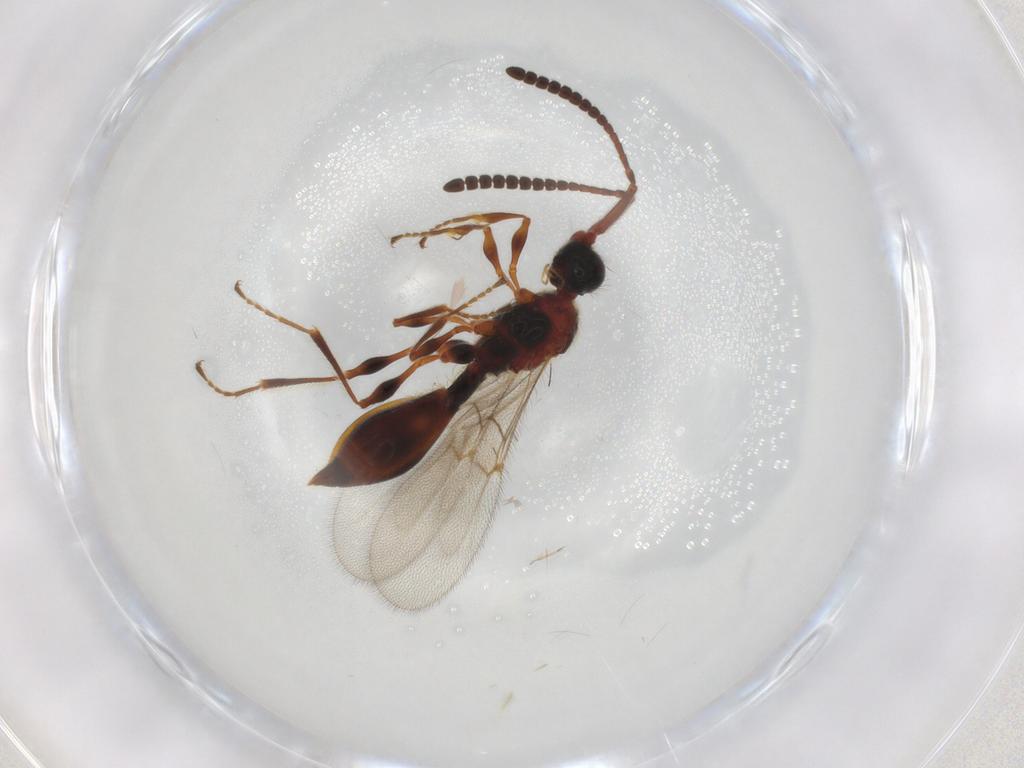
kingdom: Animalia
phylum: Arthropoda
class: Insecta
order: Hymenoptera
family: Diapriidae
